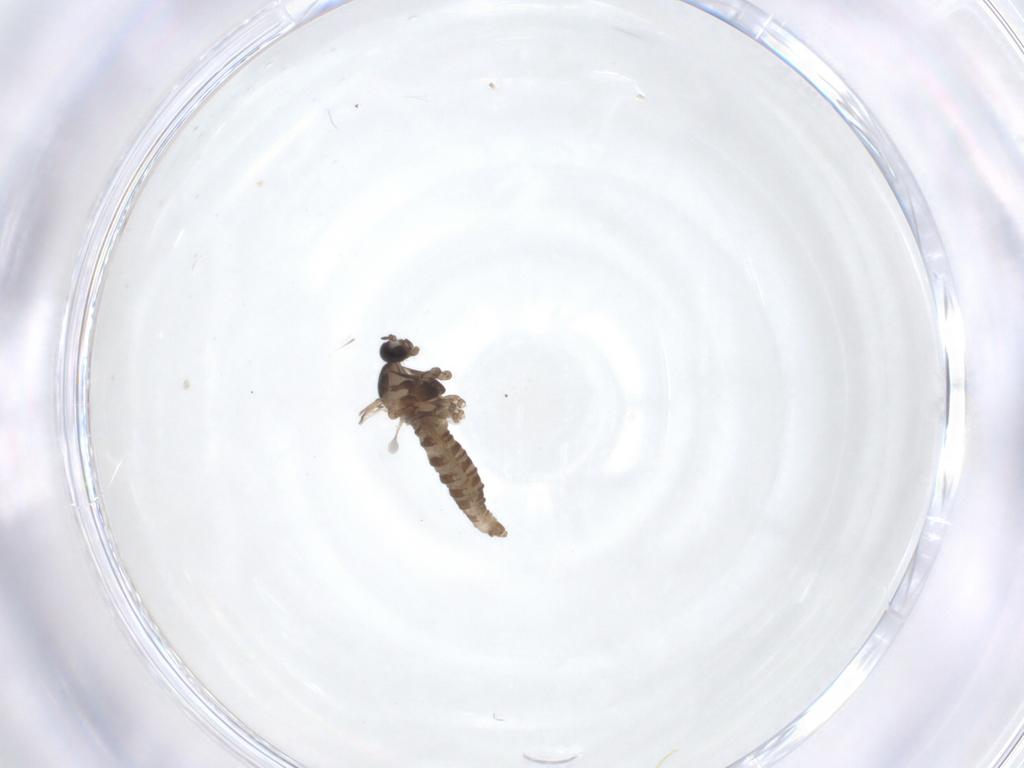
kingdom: Animalia
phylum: Arthropoda
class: Insecta
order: Diptera
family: Cecidomyiidae
